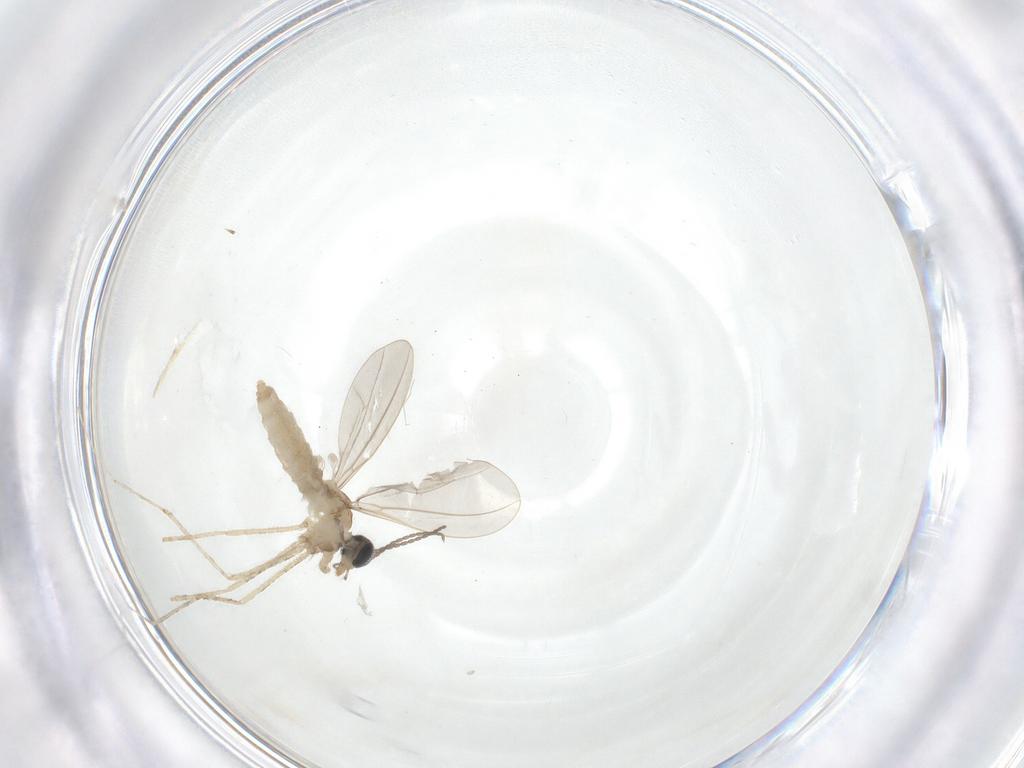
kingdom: Animalia
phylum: Arthropoda
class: Insecta
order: Diptera
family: Cecidomyiidae
